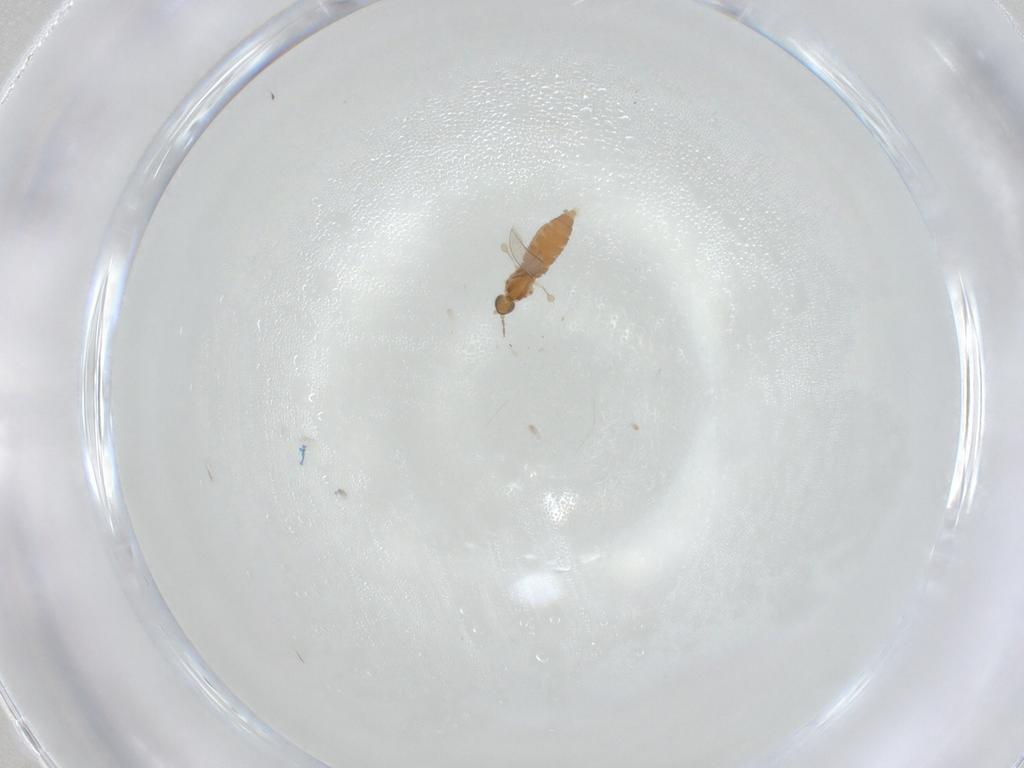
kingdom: Animalia
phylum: Arthropoda
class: Insecta
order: Diptera
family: Cecidomyiidae
